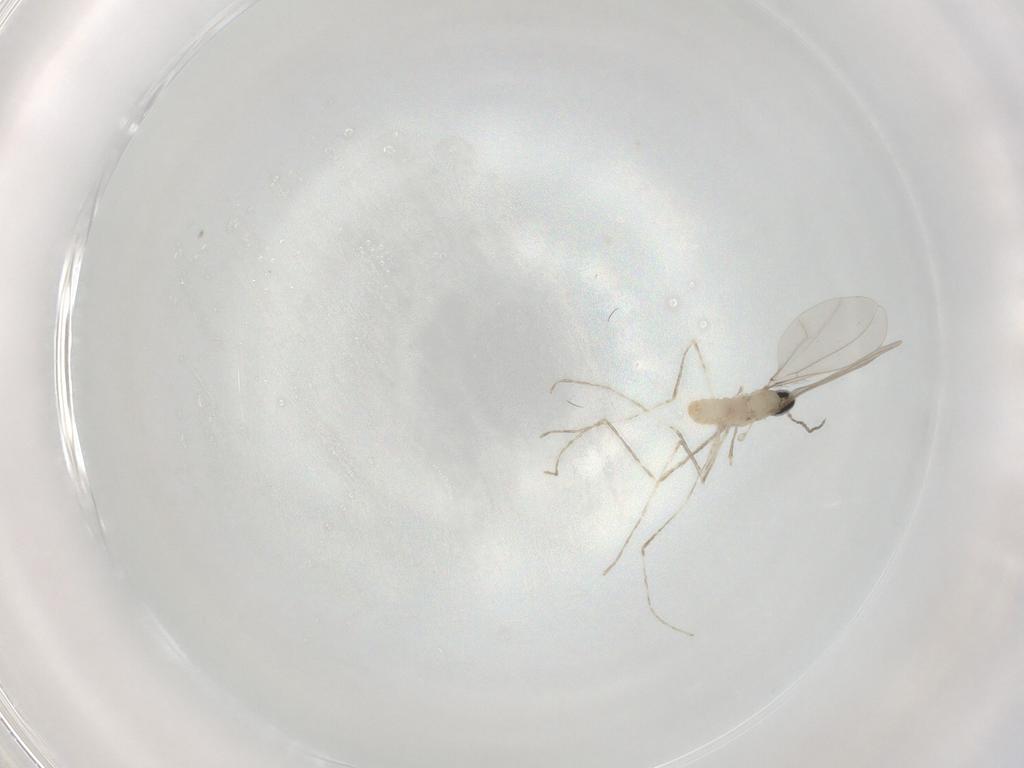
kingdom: Animalia
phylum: Arthropoda
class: Insecta
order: Diptera
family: Cecidomyiidae
